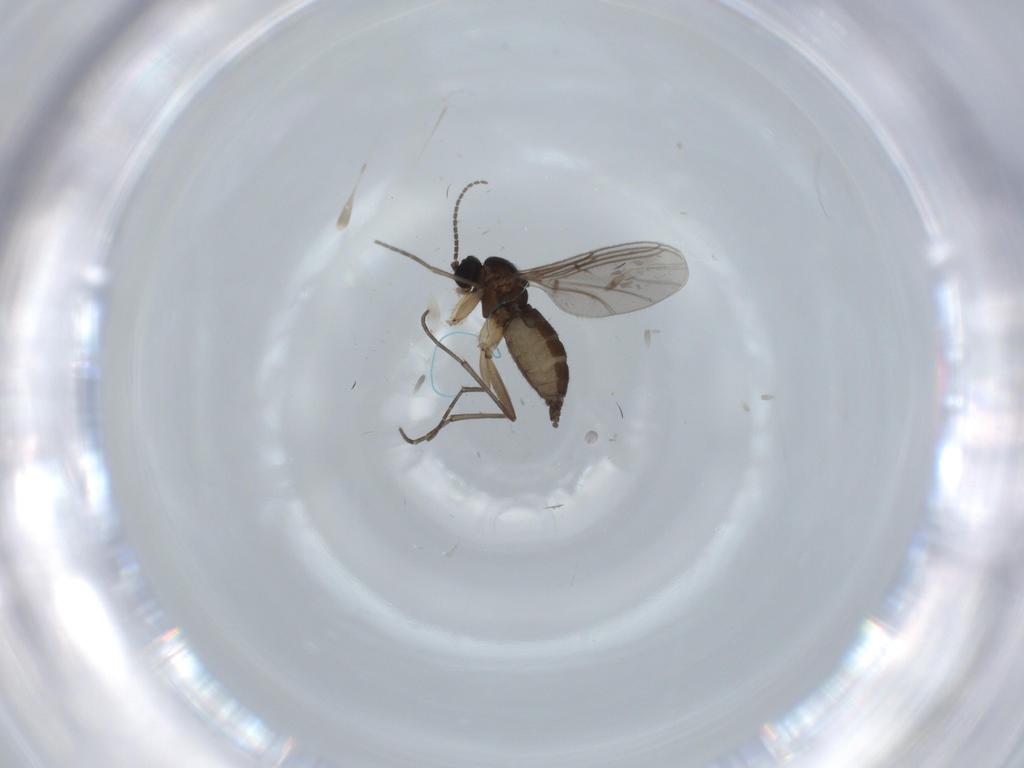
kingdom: Animalia
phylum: Arthropoda
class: Insecta
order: Diptera
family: Sciaridae
